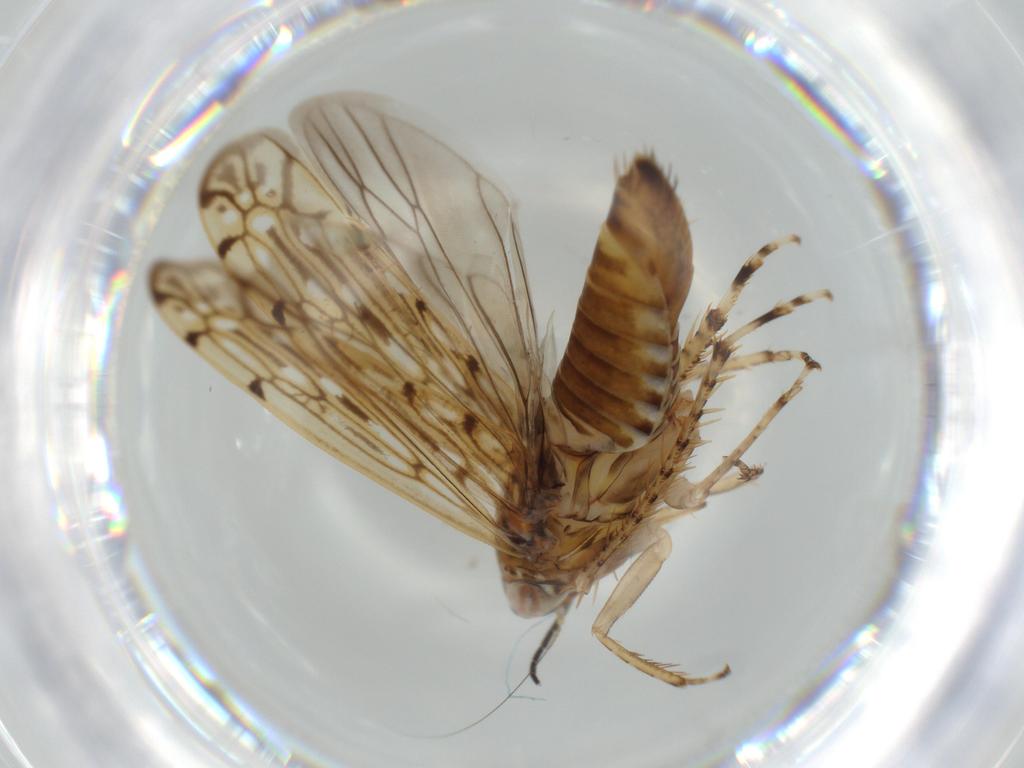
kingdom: Animalia
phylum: Arthropoda
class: Insecta
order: Hemiptera
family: Cicadellidae
